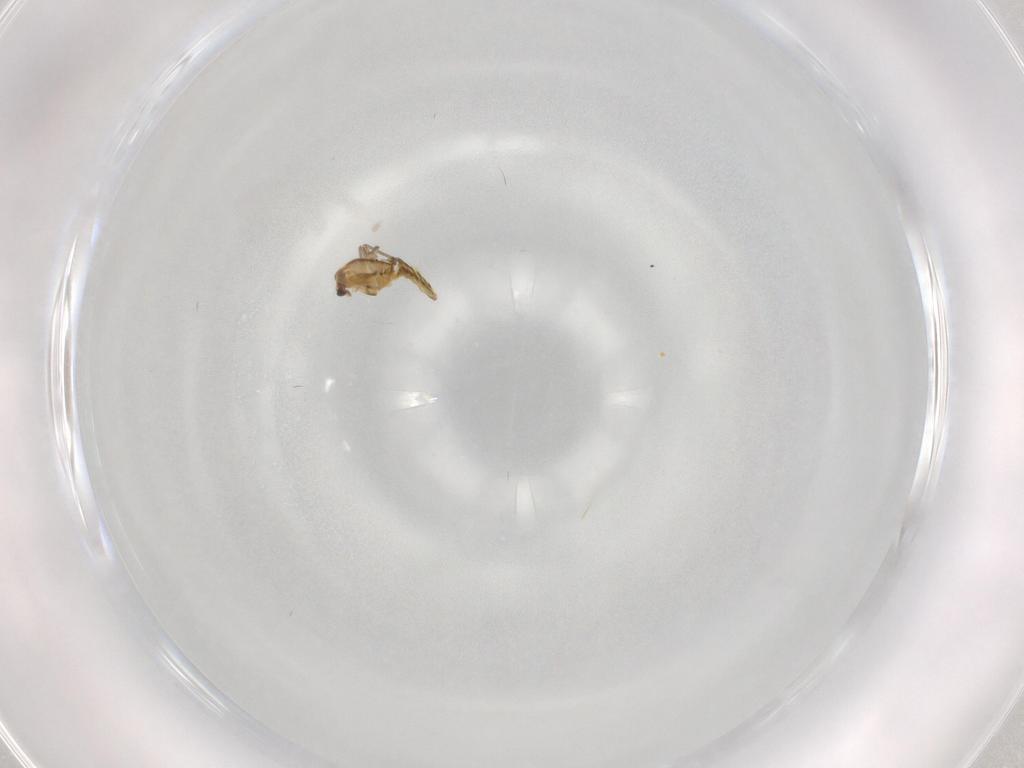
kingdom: Animalia
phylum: Arthropoda
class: Insecta
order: Diptera
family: Chironomidae
